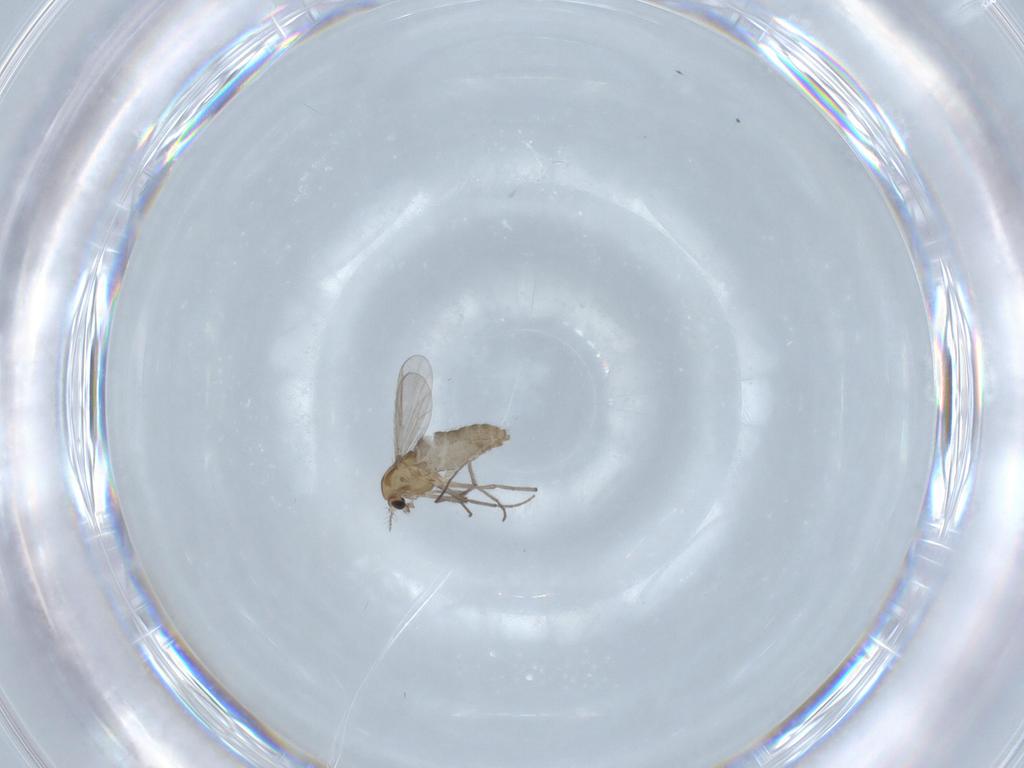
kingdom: Animalia
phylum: Arthropoda
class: Insecta
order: Diptera
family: Chironomidae
